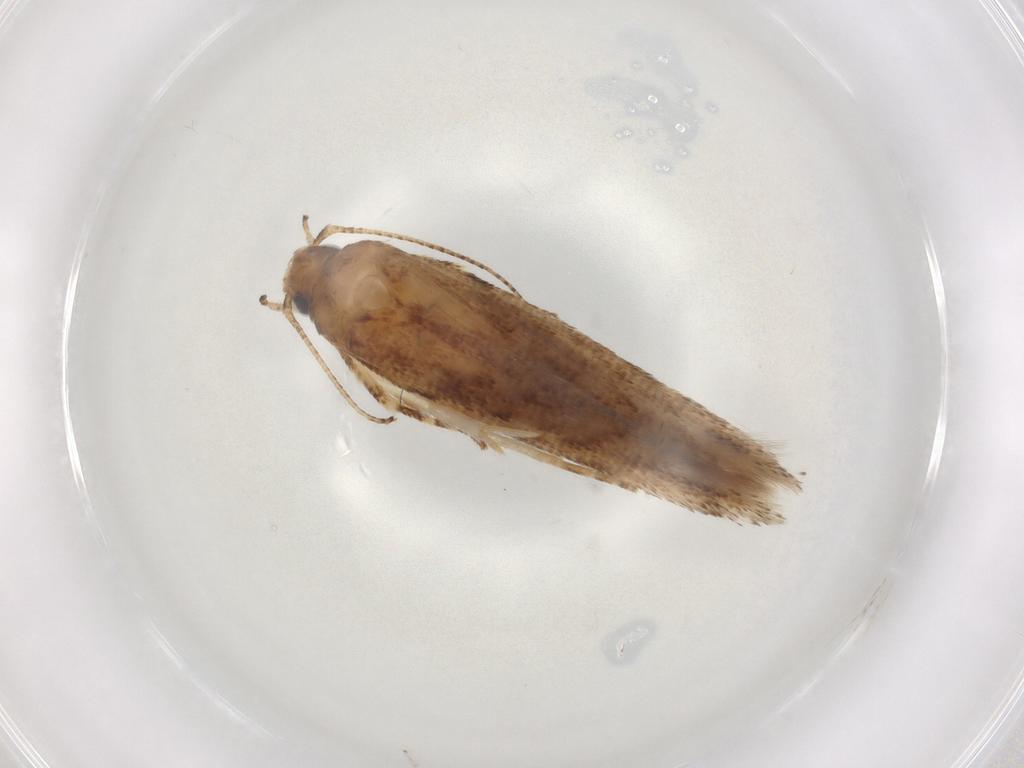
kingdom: Animalia
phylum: Arthropoda
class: Insecta
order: Lepidoptera
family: Gelechiidae
